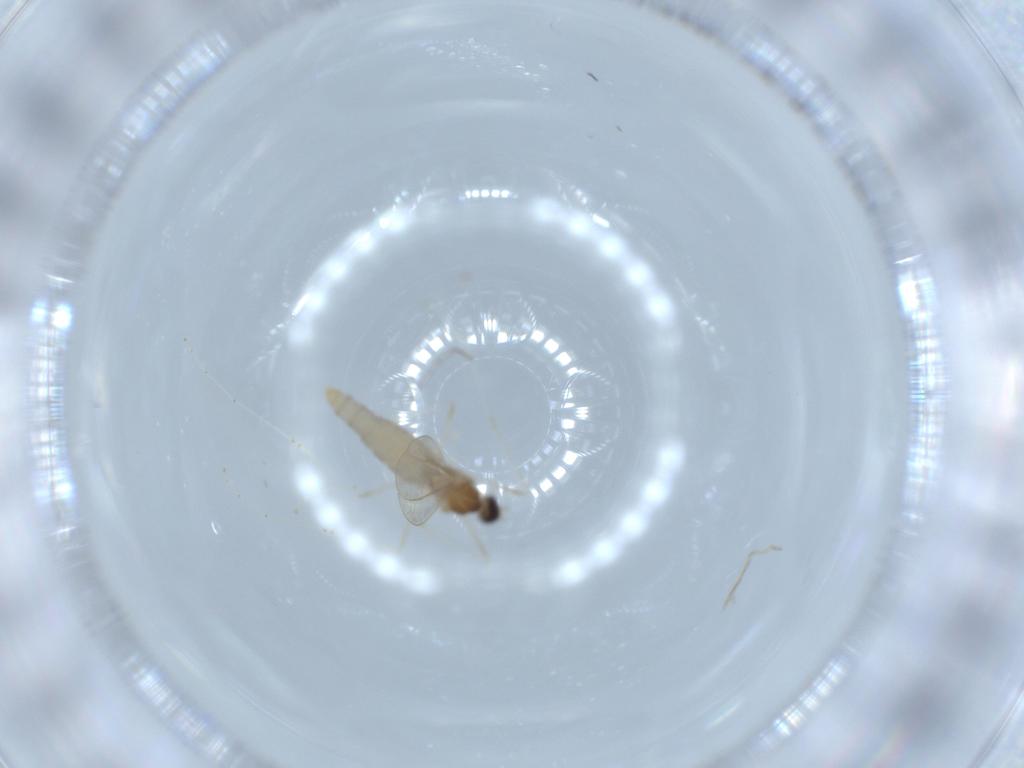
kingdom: Animalia
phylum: Arthropoda
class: Insecta
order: Diptera
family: Chironomidae
